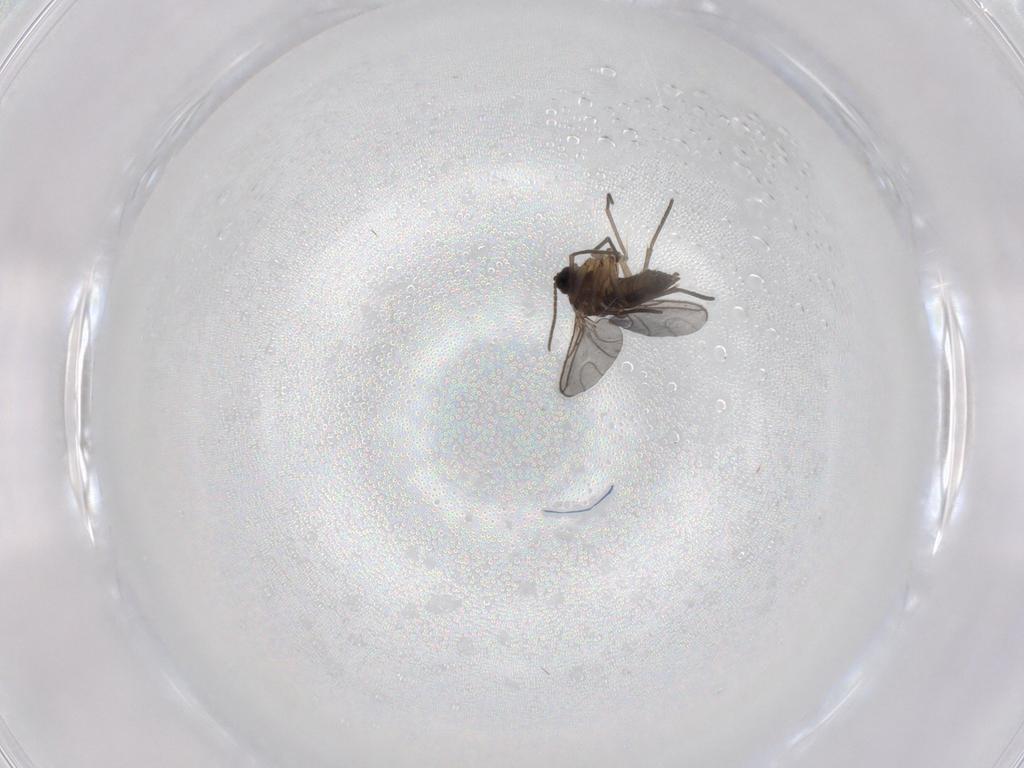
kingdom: Animalia
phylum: Arthropoda
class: Insecta
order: Diptera
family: Sciaridae
